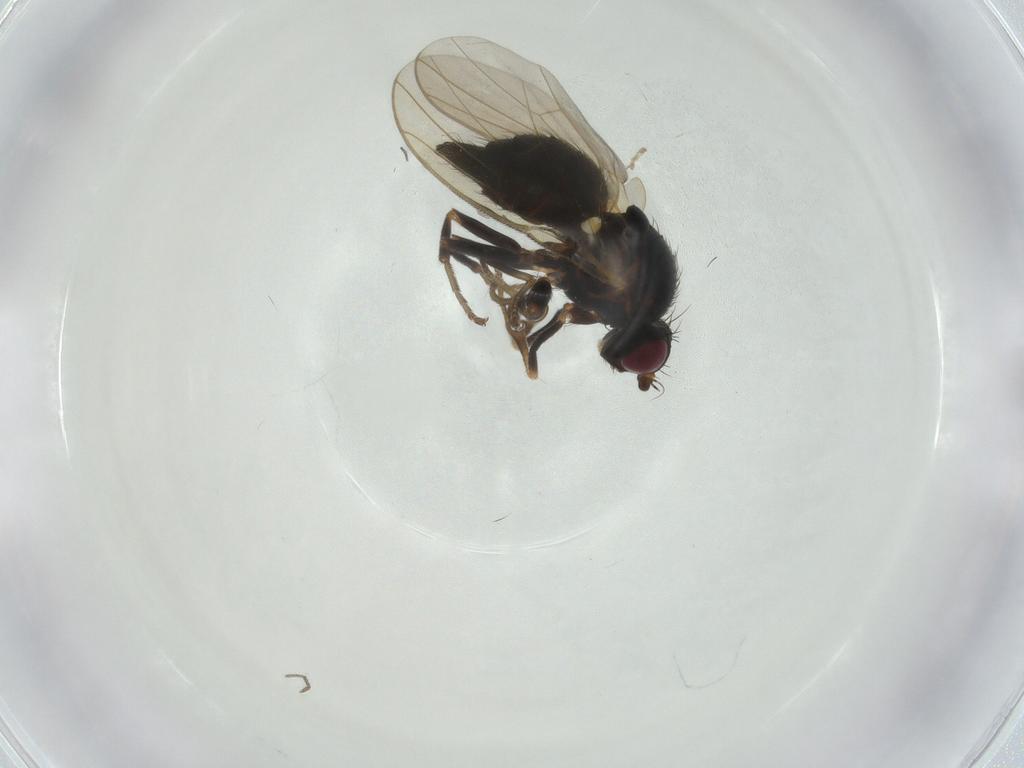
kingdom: Animalia
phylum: Arthropoda
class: Insecta
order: Diptera
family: Agromyzidae
